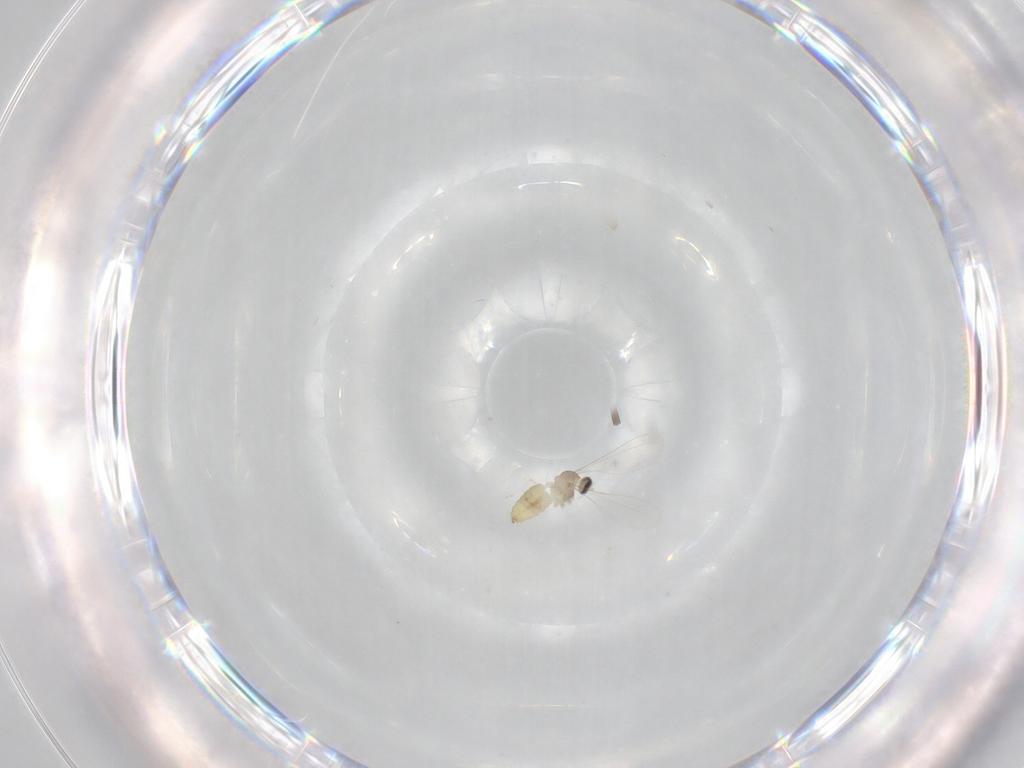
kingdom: Animalia
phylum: Arthropoda
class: Insecta
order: Diptera
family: Cecidomyiidae
